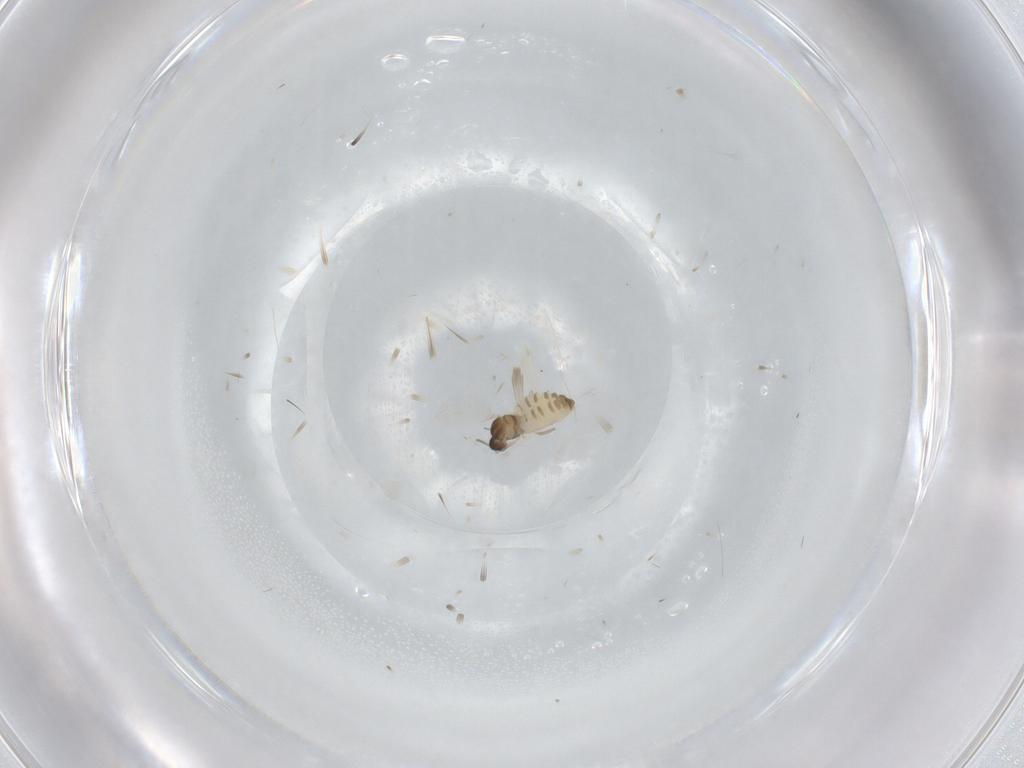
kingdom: Animalia
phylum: Arthropoda
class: Insecta
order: Diptera
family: Cecidomyiidae
